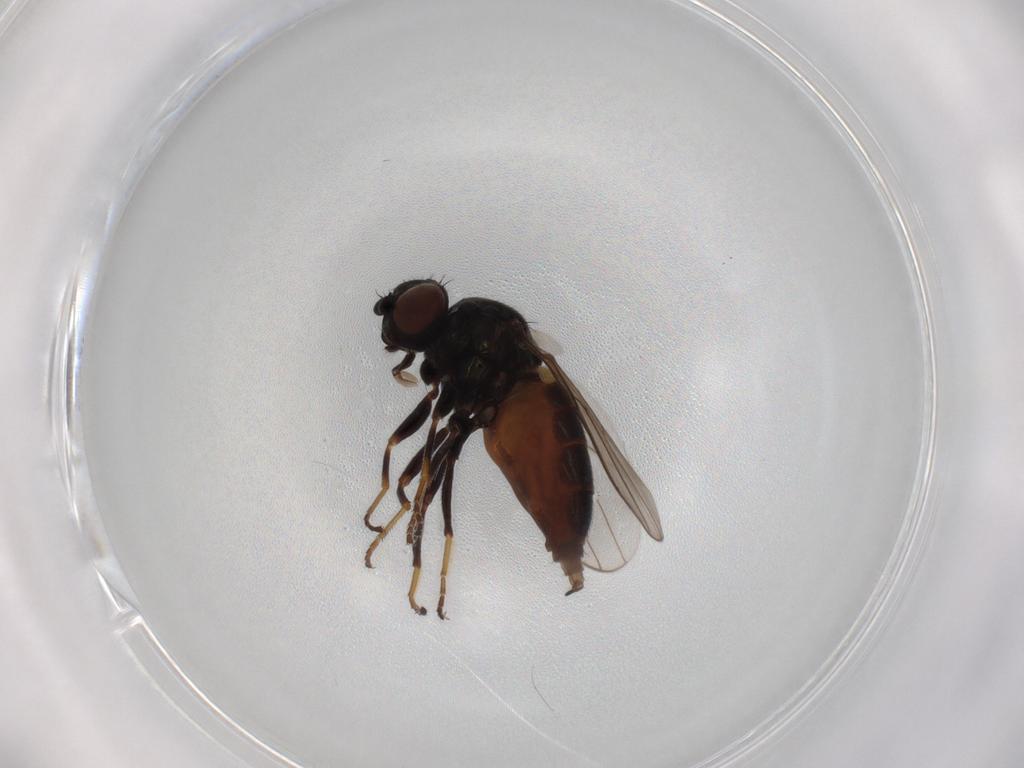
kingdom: Animalia
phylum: Arthropoda
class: Insecta
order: Diptera
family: Chloropidae
